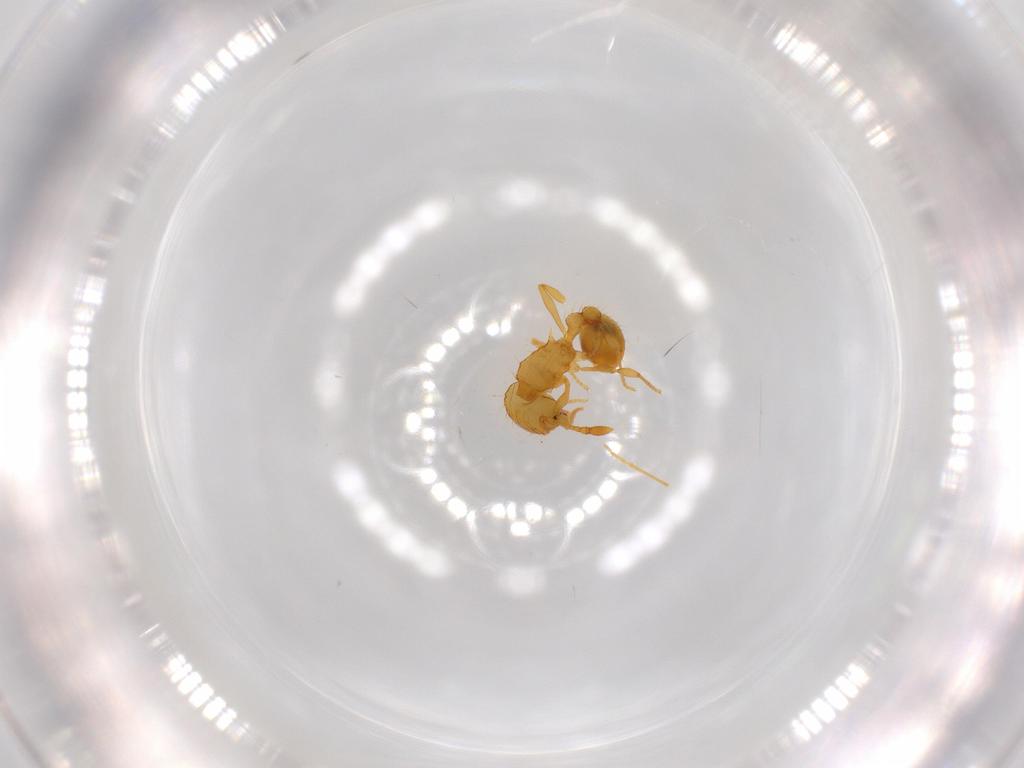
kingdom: Animalia
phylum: Arthropoda
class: Insecta
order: Hymenoptera
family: Formicidae
